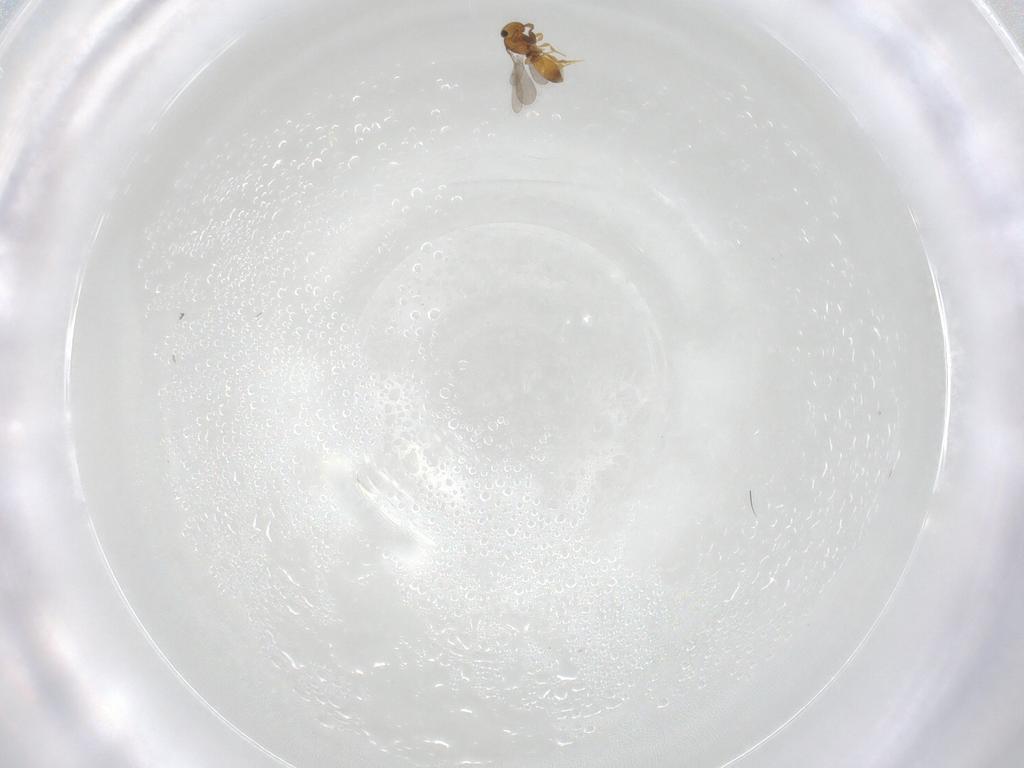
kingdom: Animalia
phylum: Arthropoda
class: Insecta
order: Hymenoptera
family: Platygastridae
